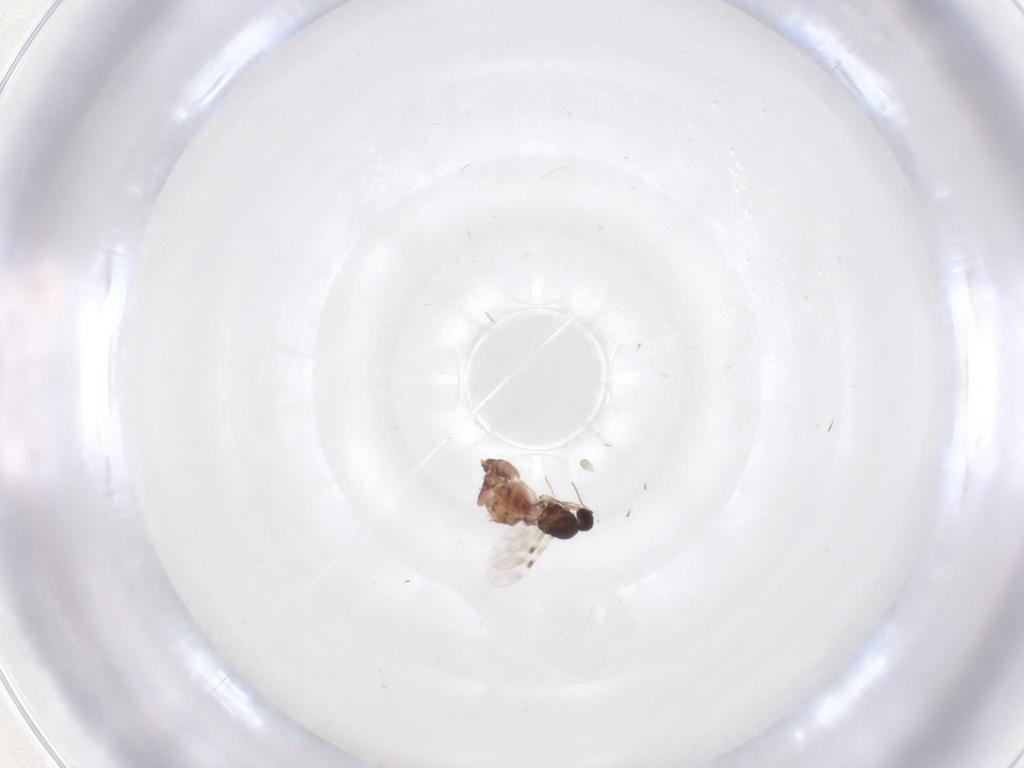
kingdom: Animalia
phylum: Arthropoda
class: Insecta
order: Diptera
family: Chironomidae
